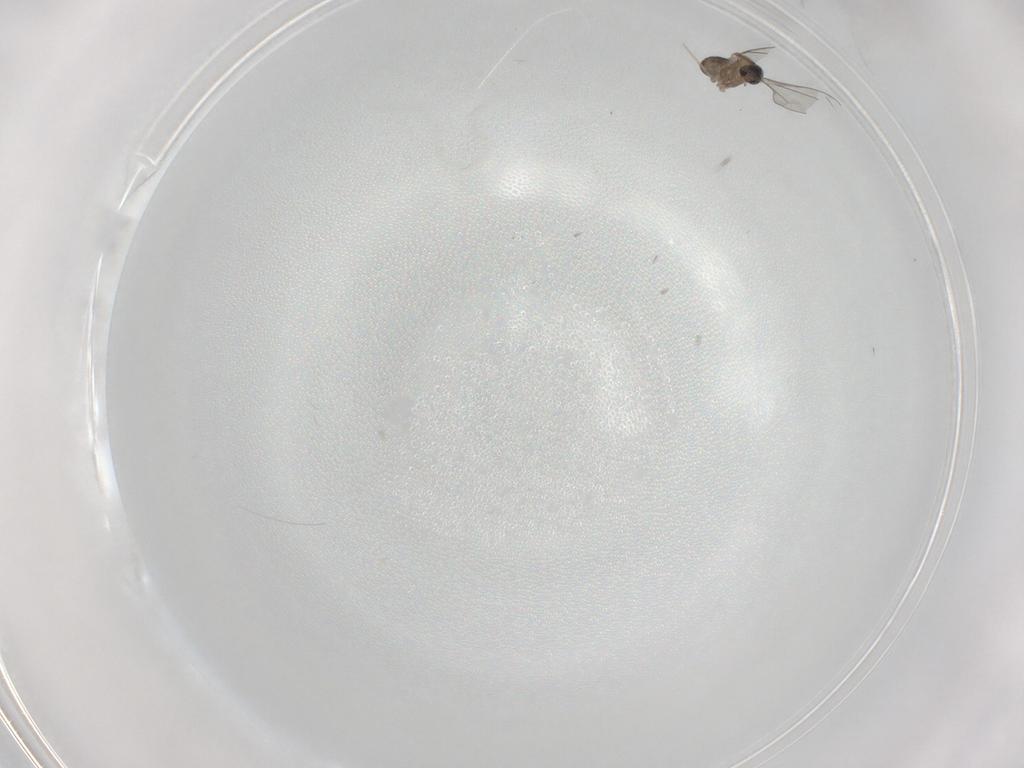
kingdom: Animalia
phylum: Arthropoda
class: Insecta
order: Diptera
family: Cecidomyiidae
